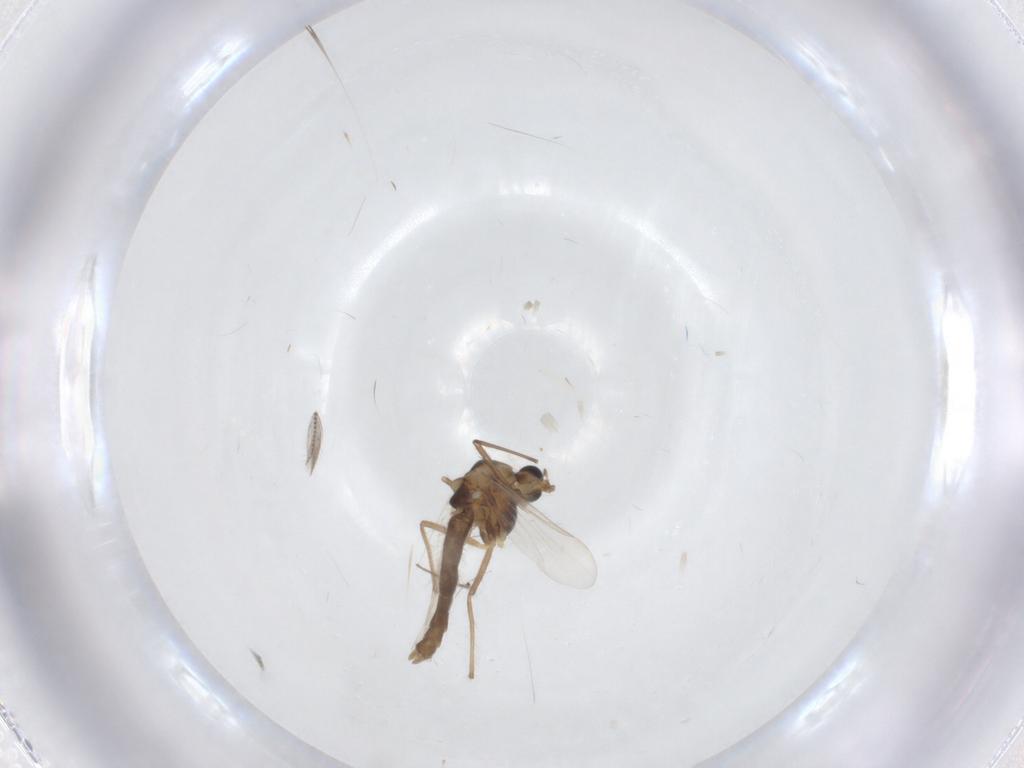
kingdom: Animalia
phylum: Arthropoda
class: Insecta
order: Diptera
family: Chironomidae
